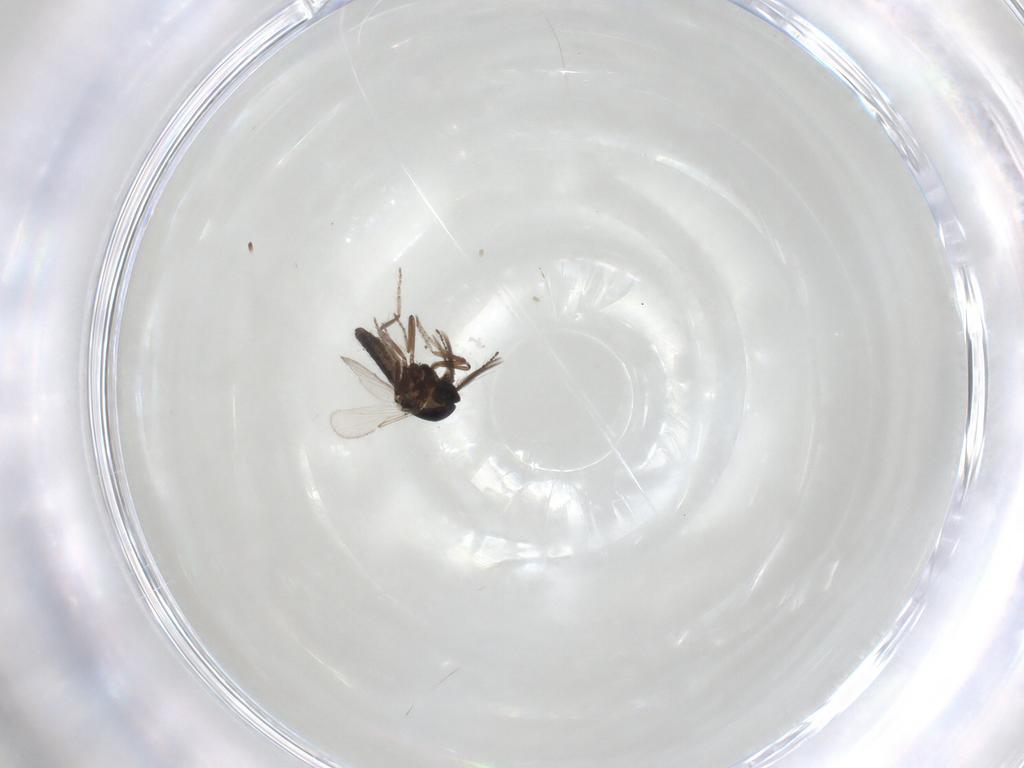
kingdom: Animalia
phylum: Arthropoda
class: Insecta
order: Diptera
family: Ceratopogonidae
